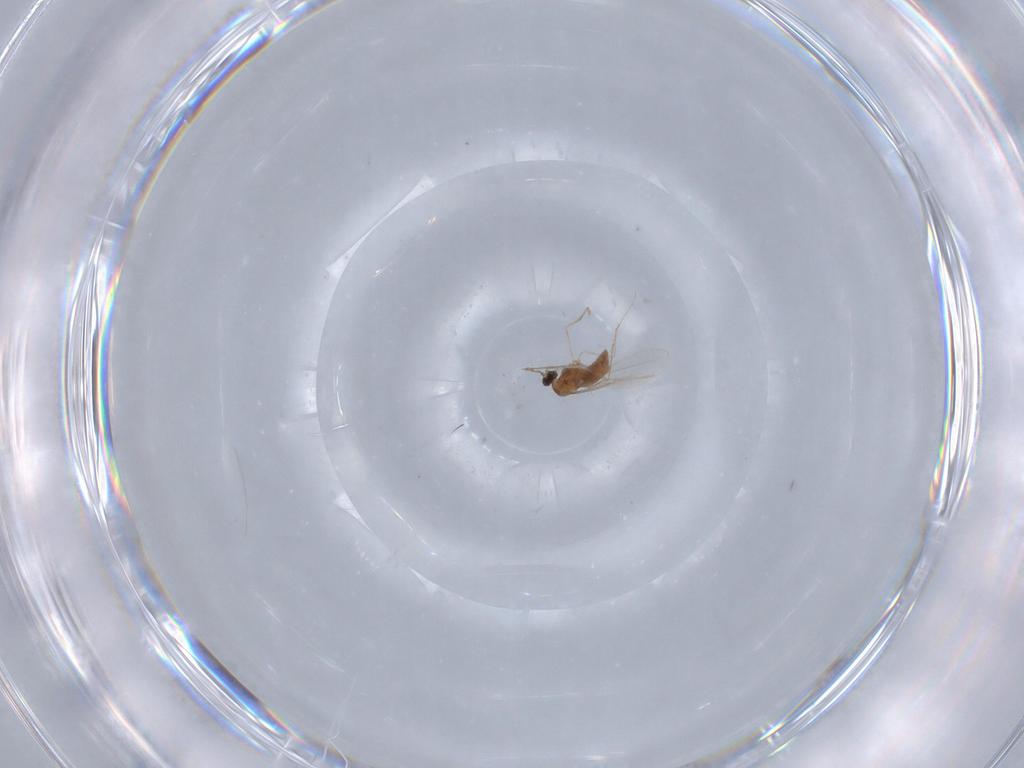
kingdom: Animalia
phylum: Arthropoda
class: Insecta
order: Diptera
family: Cecidomyiidae
